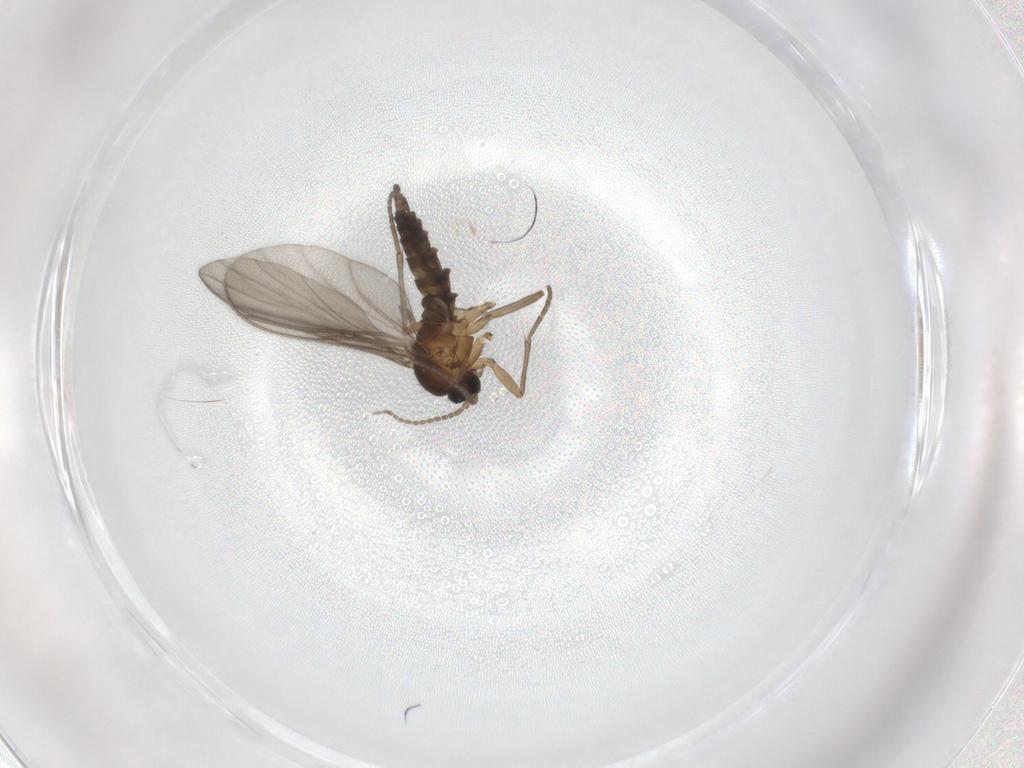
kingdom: Animalia
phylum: Arthropoda
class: Insecta
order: Diptera
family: Sciaridae
